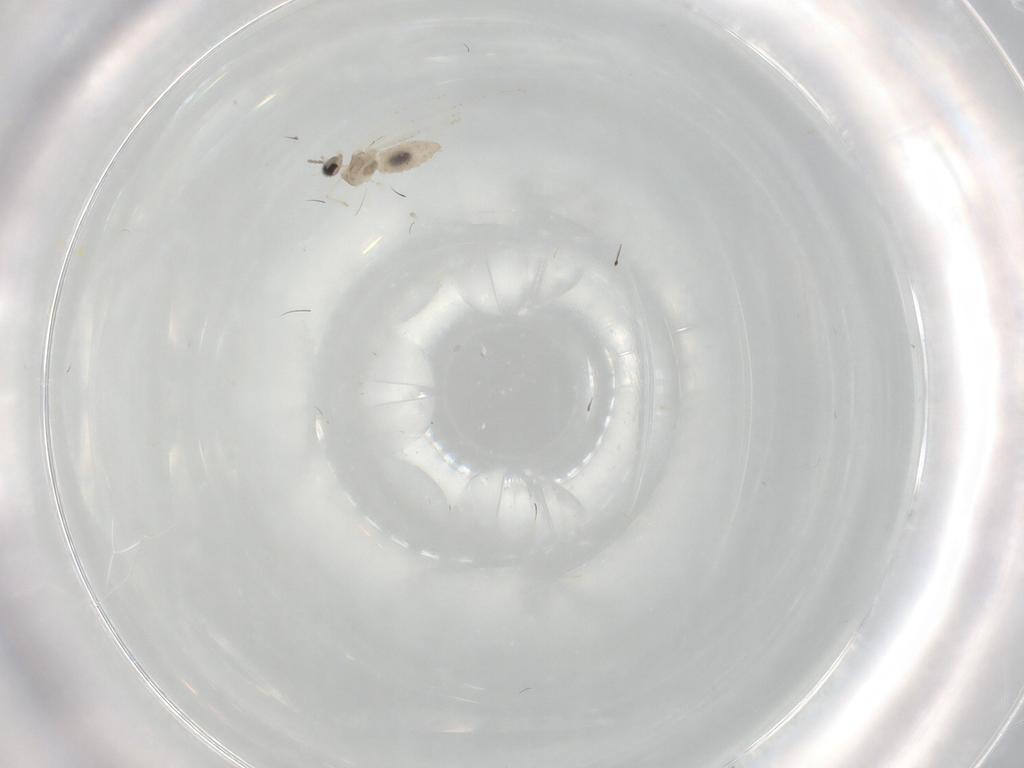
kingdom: Animalia
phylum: Arthropoda
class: Insecta
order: Diptera
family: Cecidomyiidae
